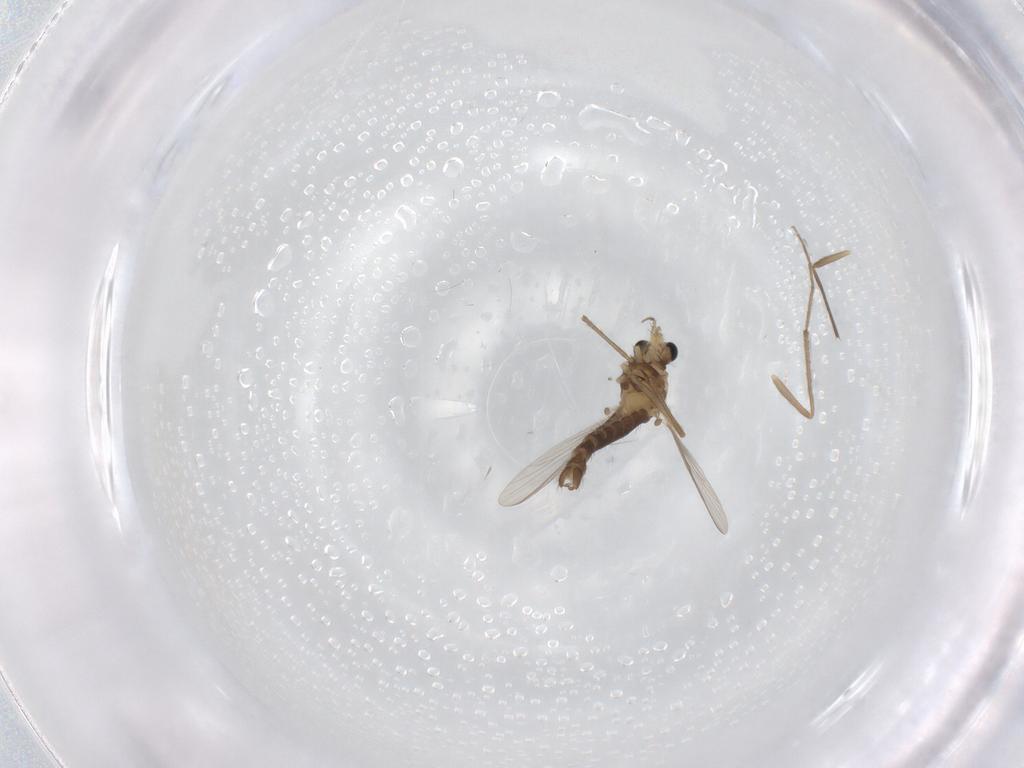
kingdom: Animalia
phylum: Arthropoda
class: Insecta
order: Diptera
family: Chironomidae
